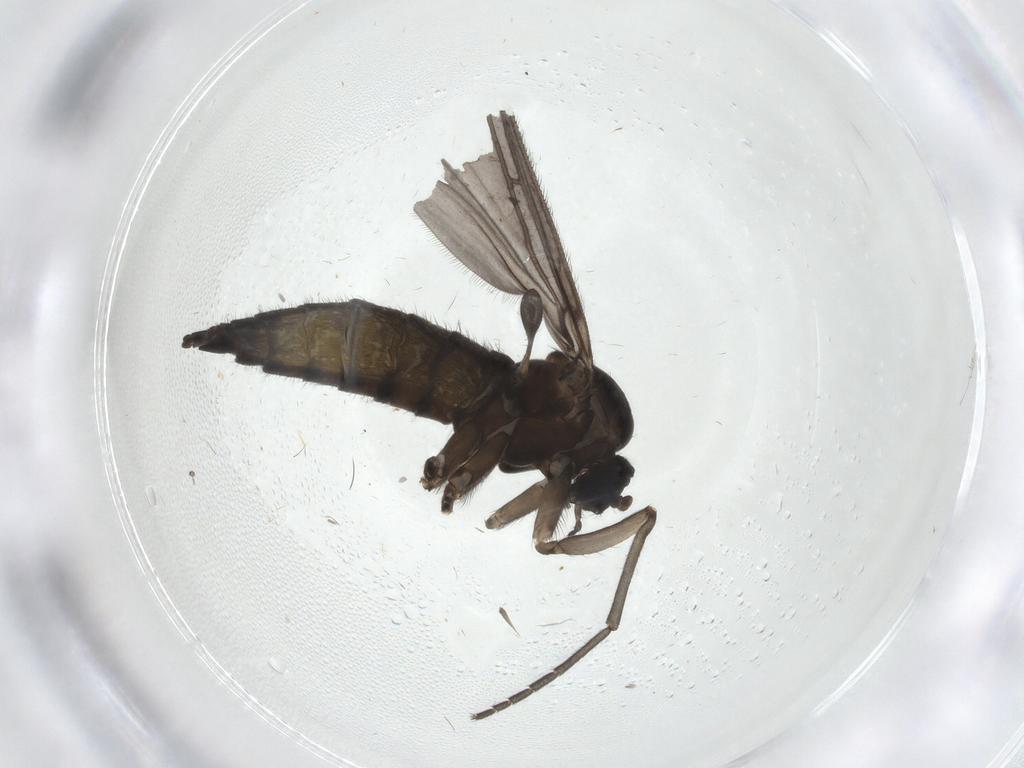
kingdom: Animalia
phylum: Arthropoda
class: Insecta
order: Diptera
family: Sciaridae
